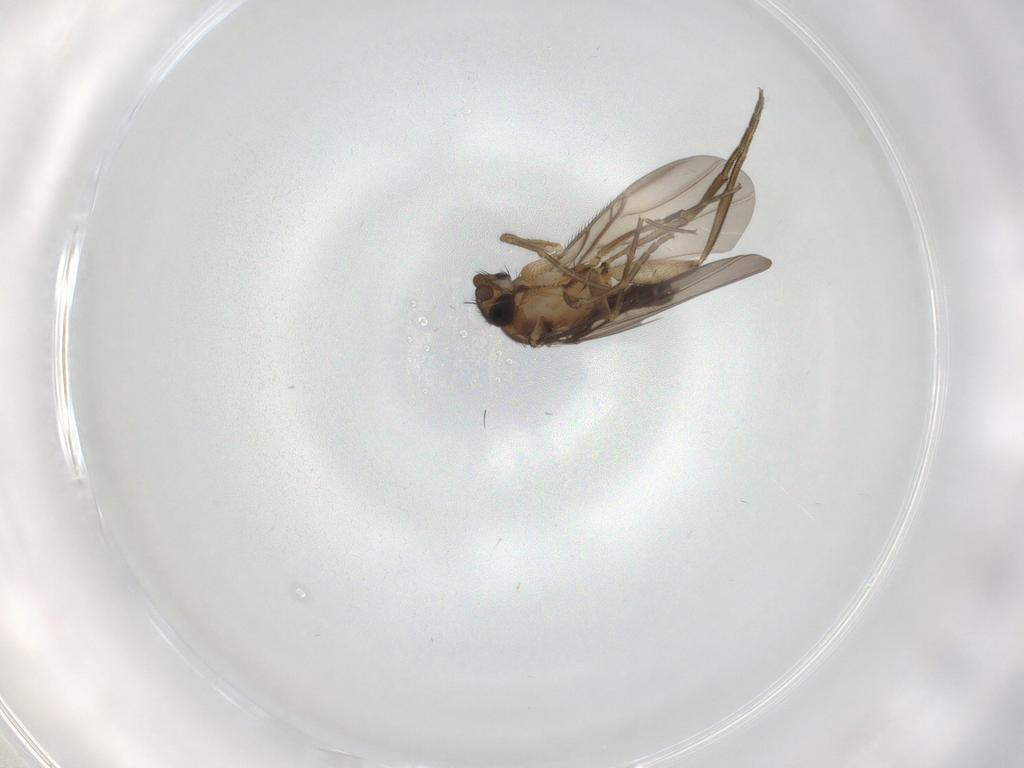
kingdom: Animalia
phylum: Arthropoda
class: Insecta
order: Diptera
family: Phoridae
